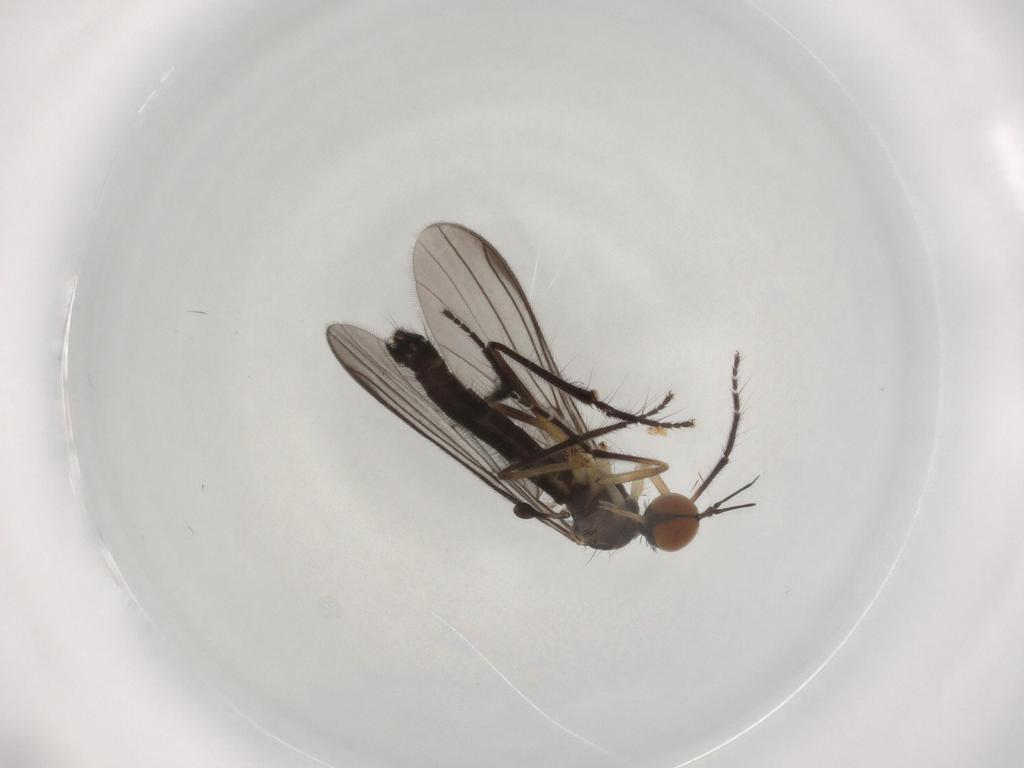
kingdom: Animalia
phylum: Arthropoda
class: Insecta
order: Diptera
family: Empididae
